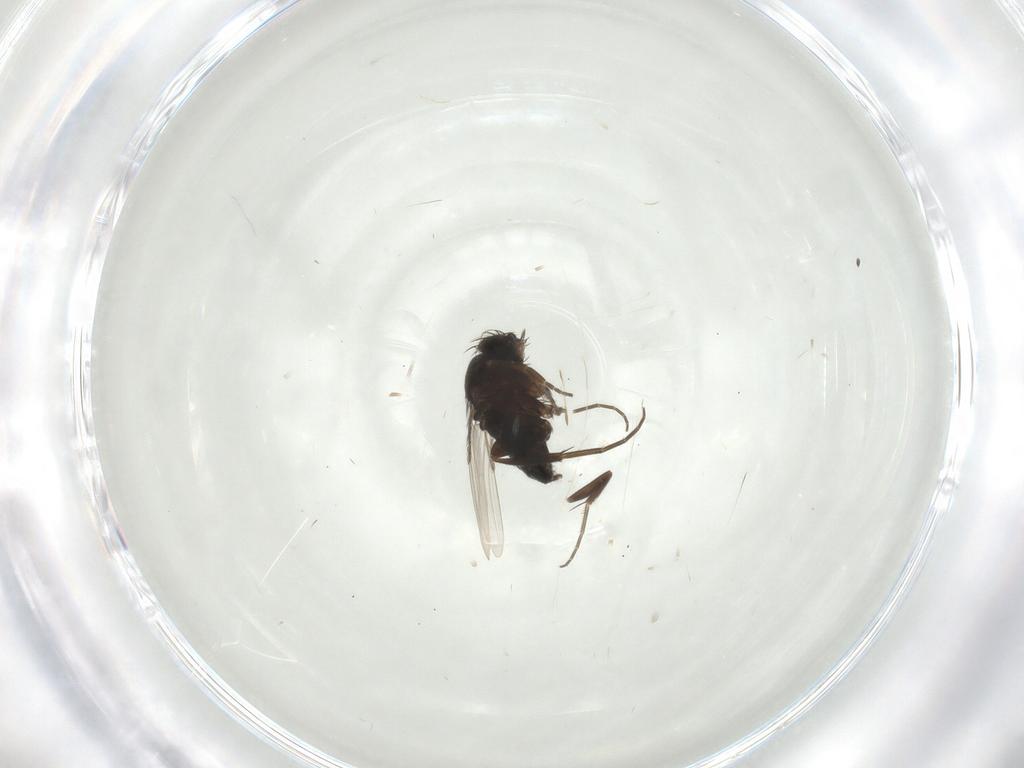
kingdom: Animalia
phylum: Arthropoda
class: Insecta
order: Diptera
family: Phoridae
